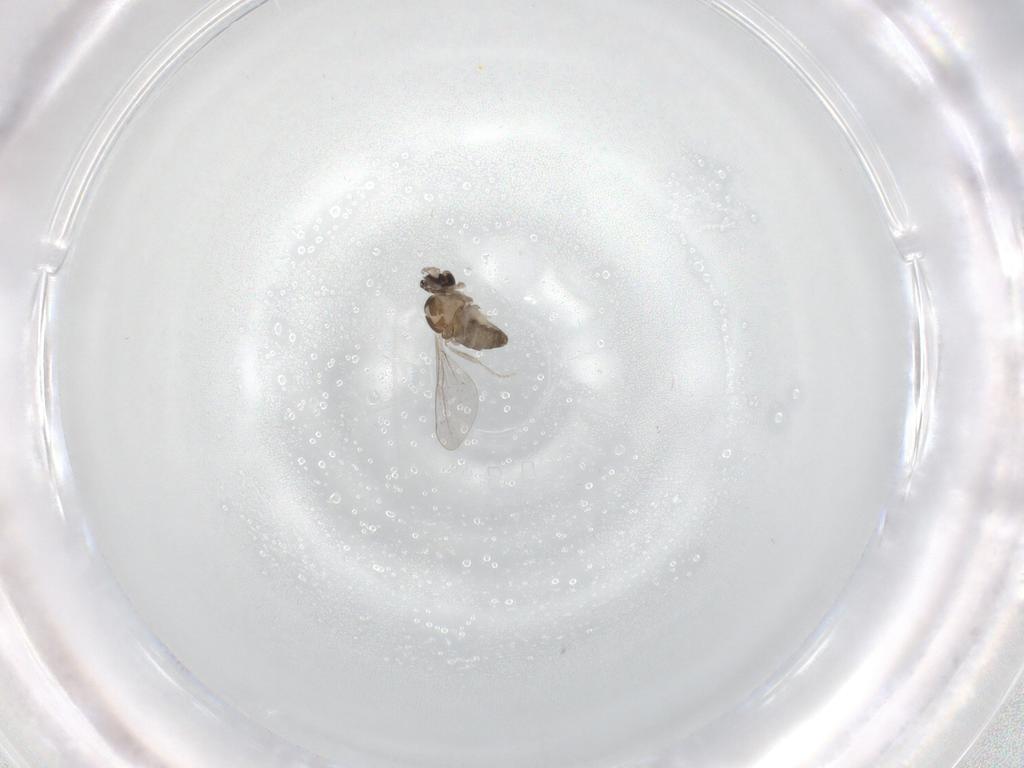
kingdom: Animalia
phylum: Arthropoda
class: Insecta
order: Diptera
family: Cecidomyiidae
